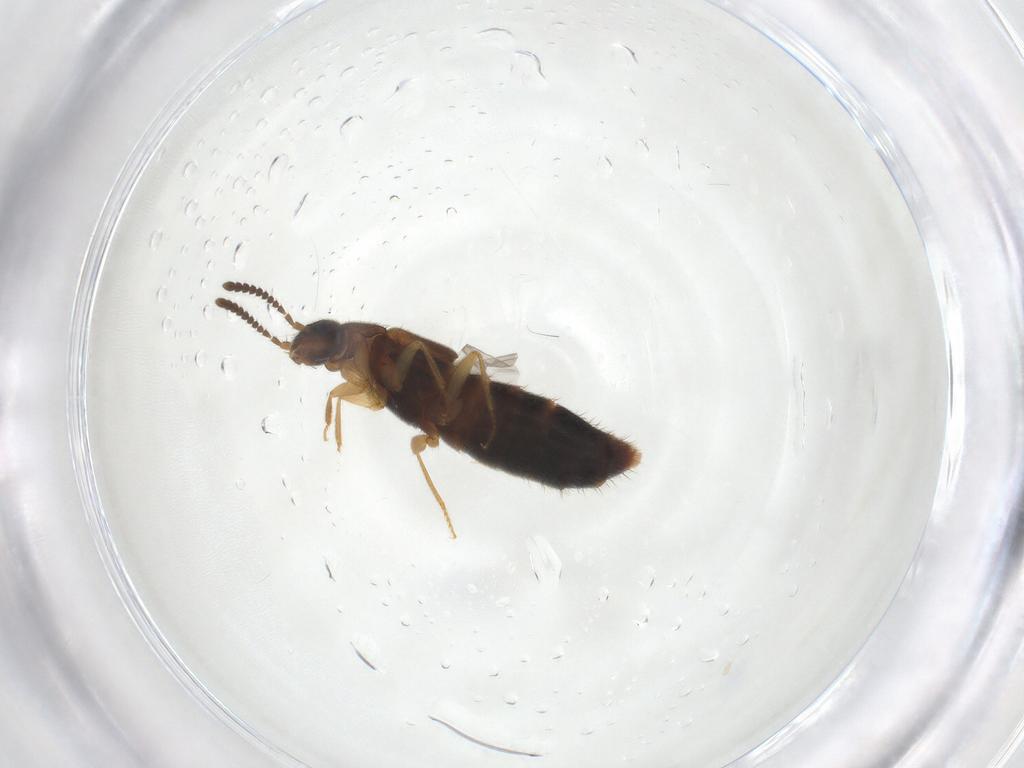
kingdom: Animalia
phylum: Arthropoda
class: Insecta
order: Coleoptera
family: Staphylinidae
